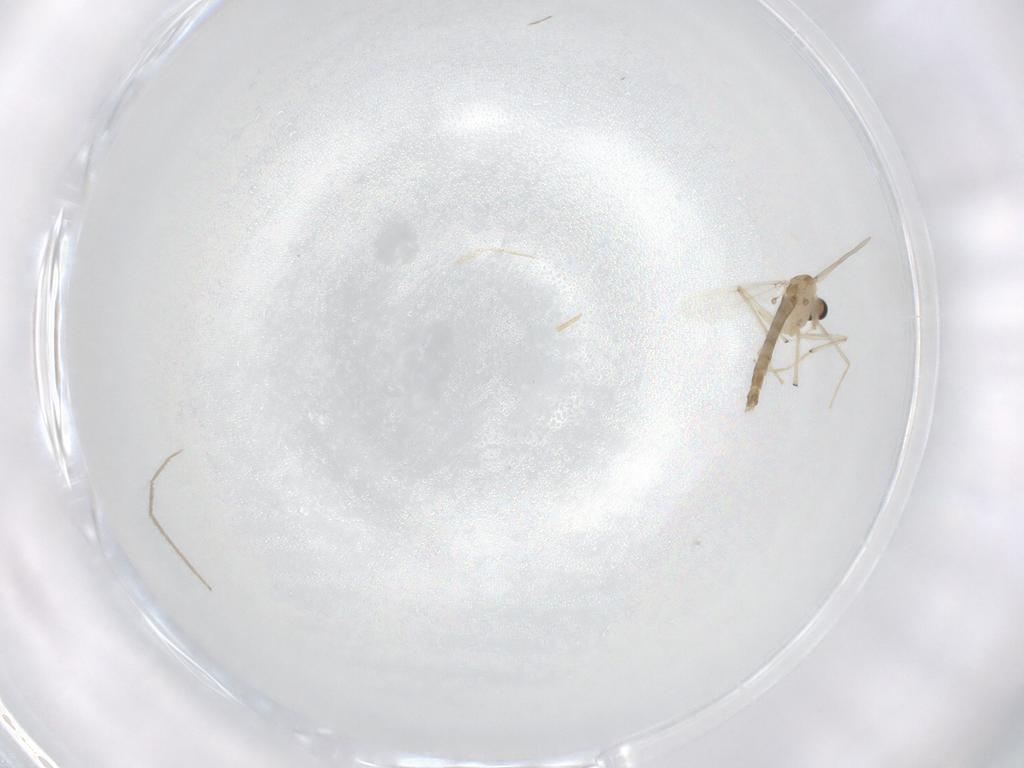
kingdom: Animalia
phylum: Arthropoda
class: Insecta
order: Diptera
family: Chironomidae
